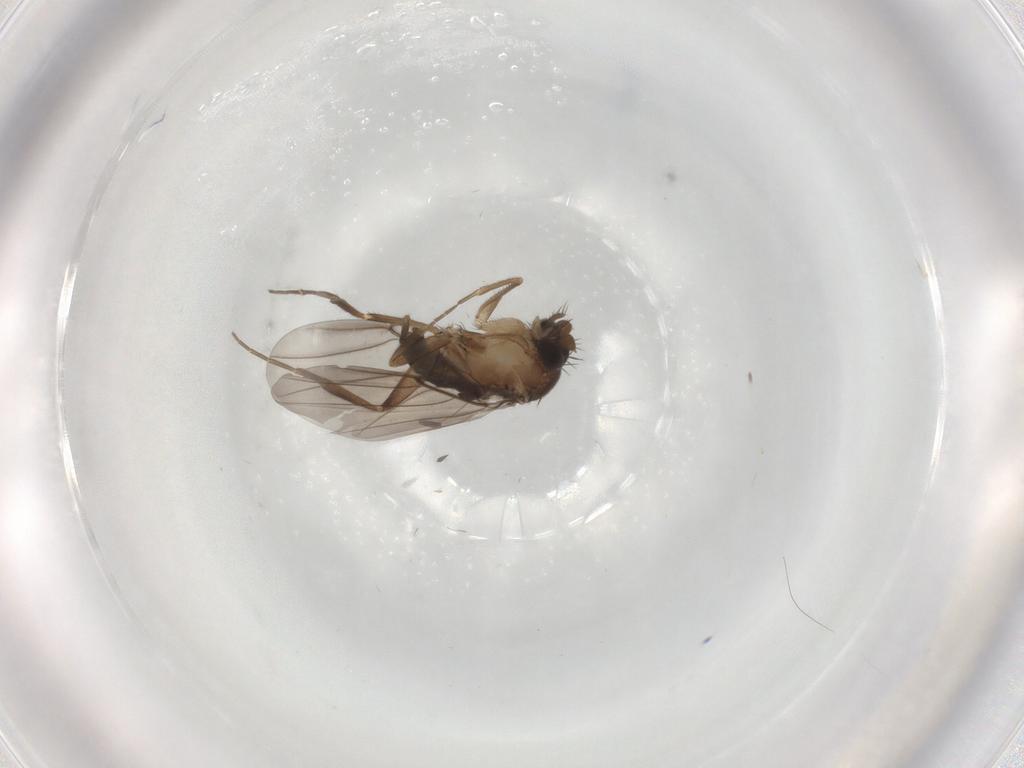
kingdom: Animalia
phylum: Arthropoda
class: Insecta
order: Diptera
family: Phoridae
